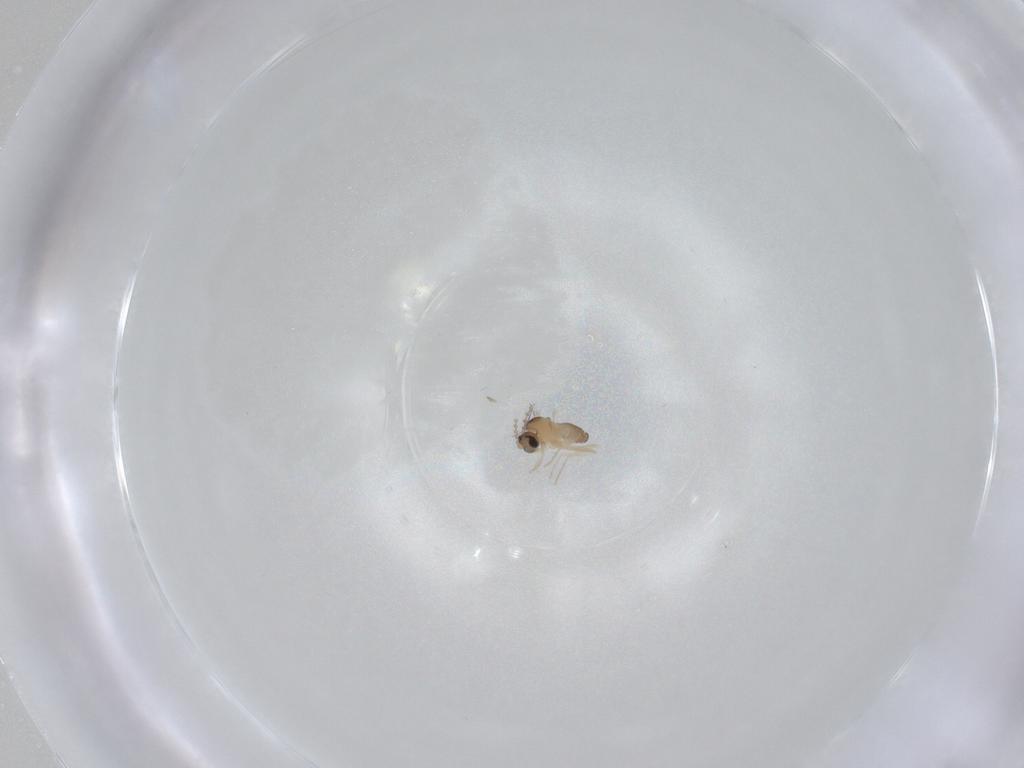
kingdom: Animalia
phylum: Arthropoda
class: Insecta
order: Diptera
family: Cecidomyiidae
